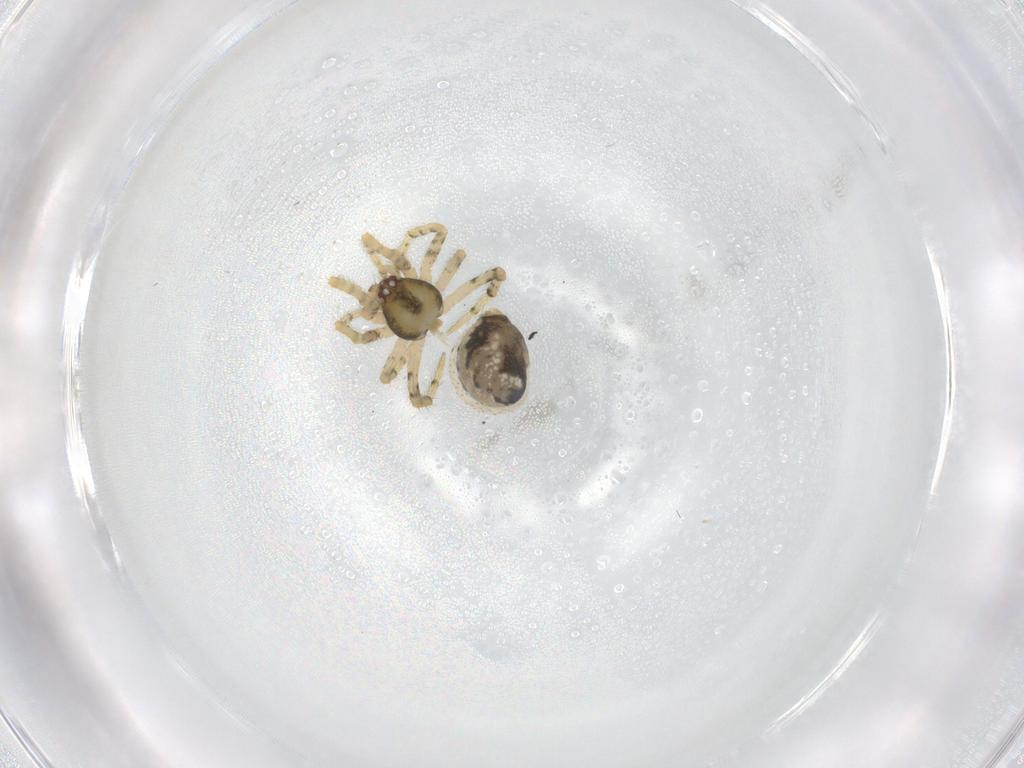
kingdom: Animalia
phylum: Arthropoda
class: Arachnida
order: Araneae
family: Theridiidae
